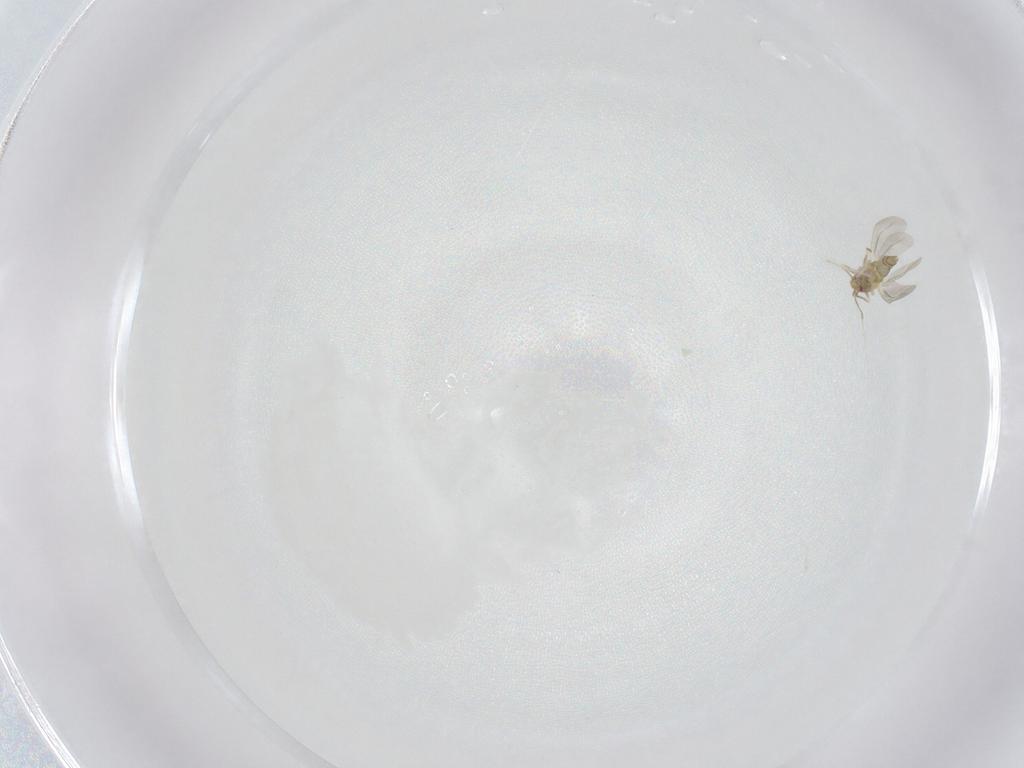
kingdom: Animalia
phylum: Arthropoda
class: Insecta
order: Hemiptera
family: Aleyrodidae
